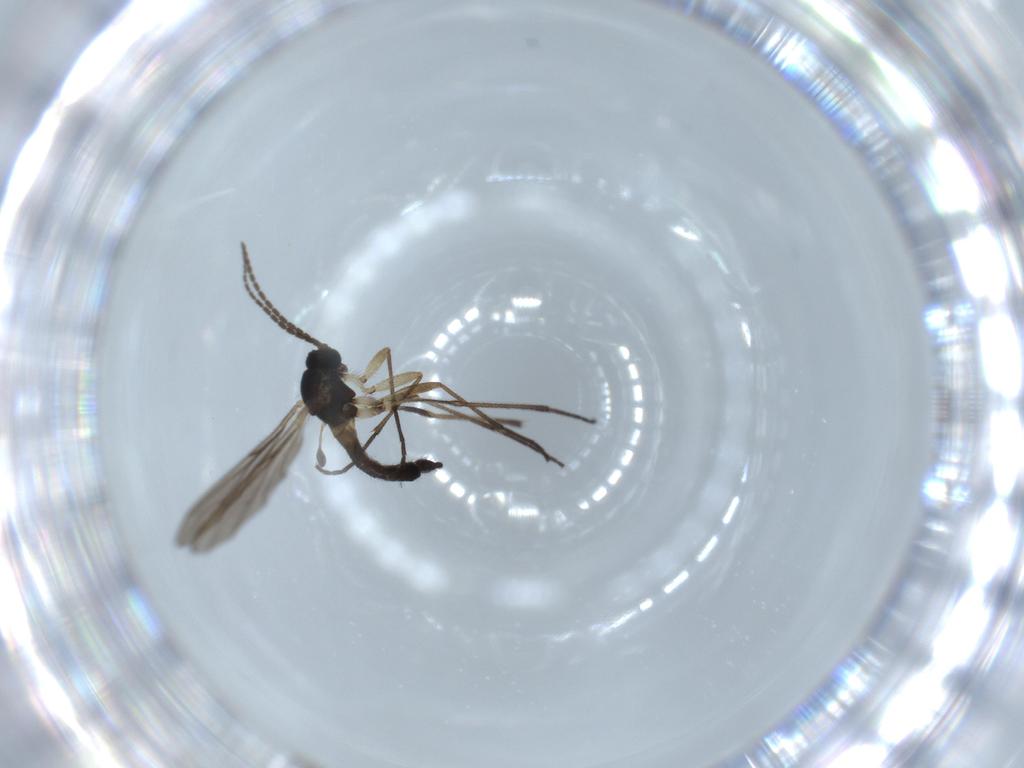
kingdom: Animalia
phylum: Arthropoda
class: Insecta
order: Diptera
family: Sciaridae
